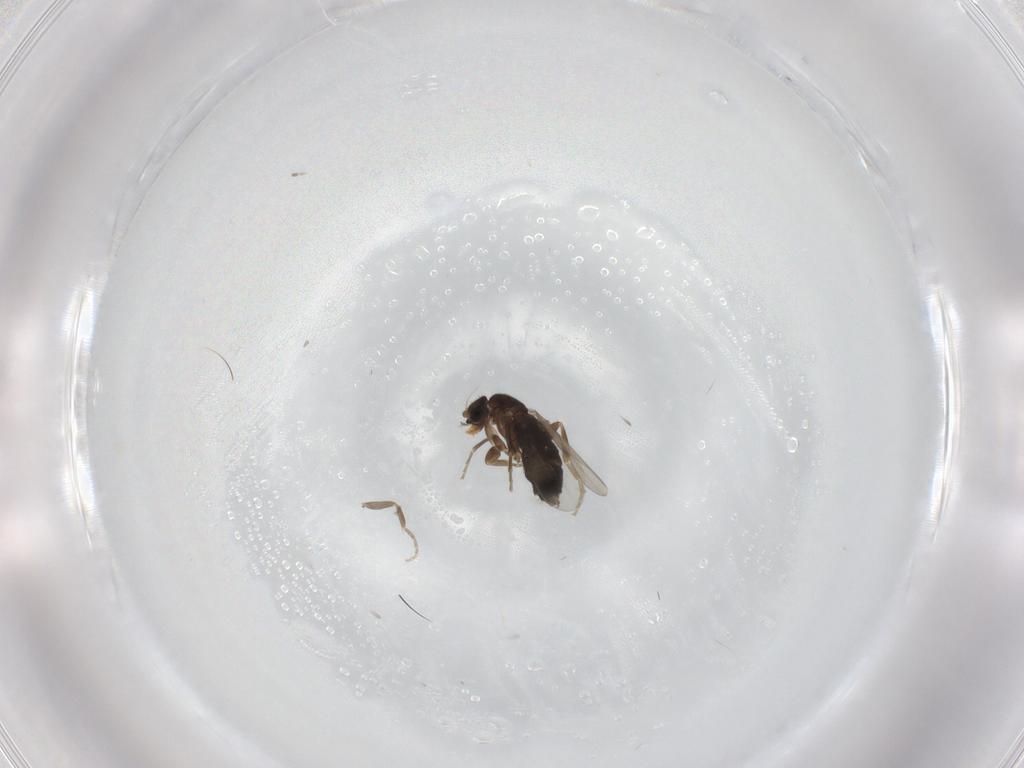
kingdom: Animalia
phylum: Arthropoda
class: Insecta
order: Diptera
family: Phoridae
